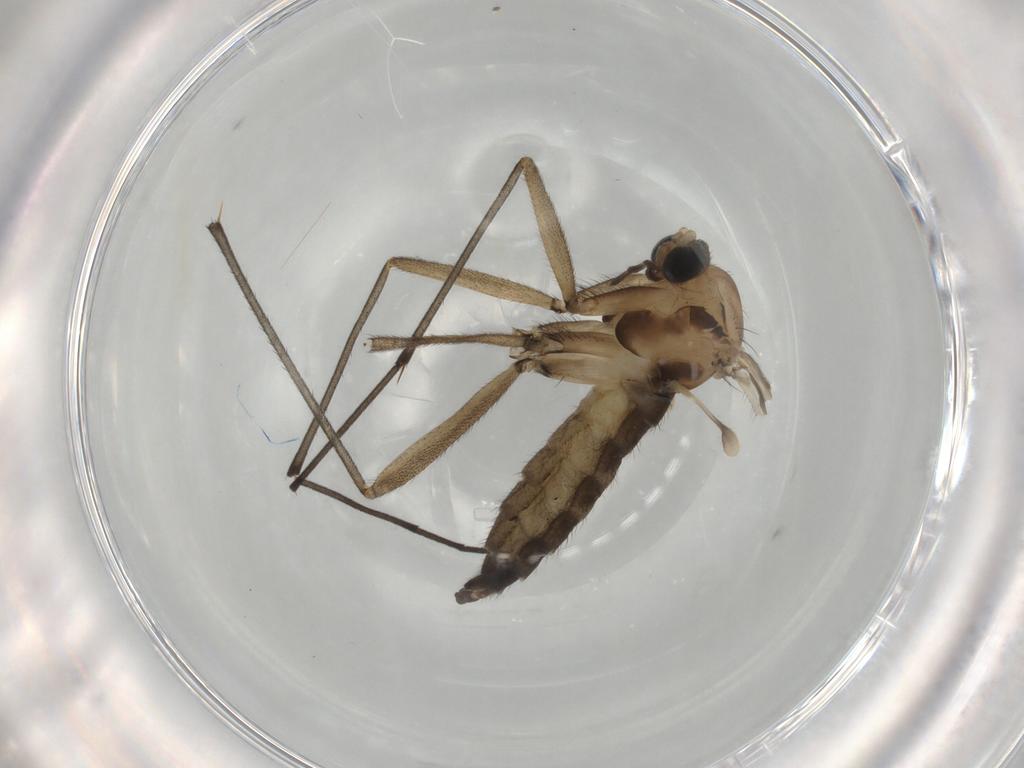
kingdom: Animalia
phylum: Arthropoda
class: Insecta
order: Diptera
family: Sciaridae
